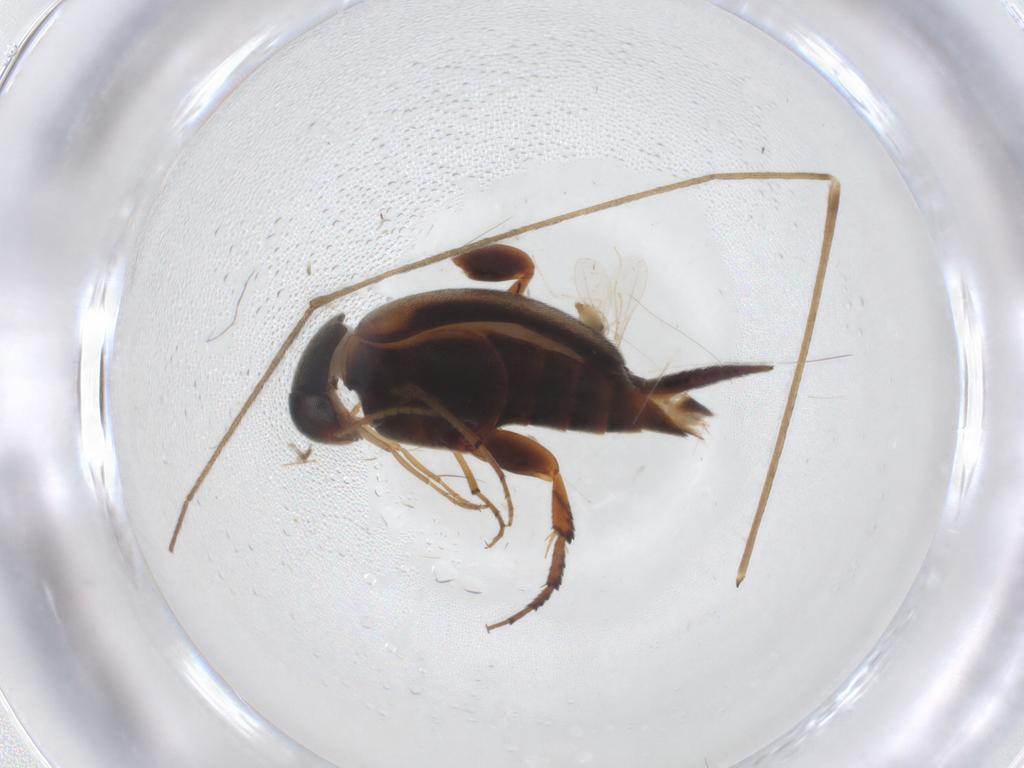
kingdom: Animalia
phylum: Arthropoda
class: Insecta
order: Coleoptera
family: Mordellidae
